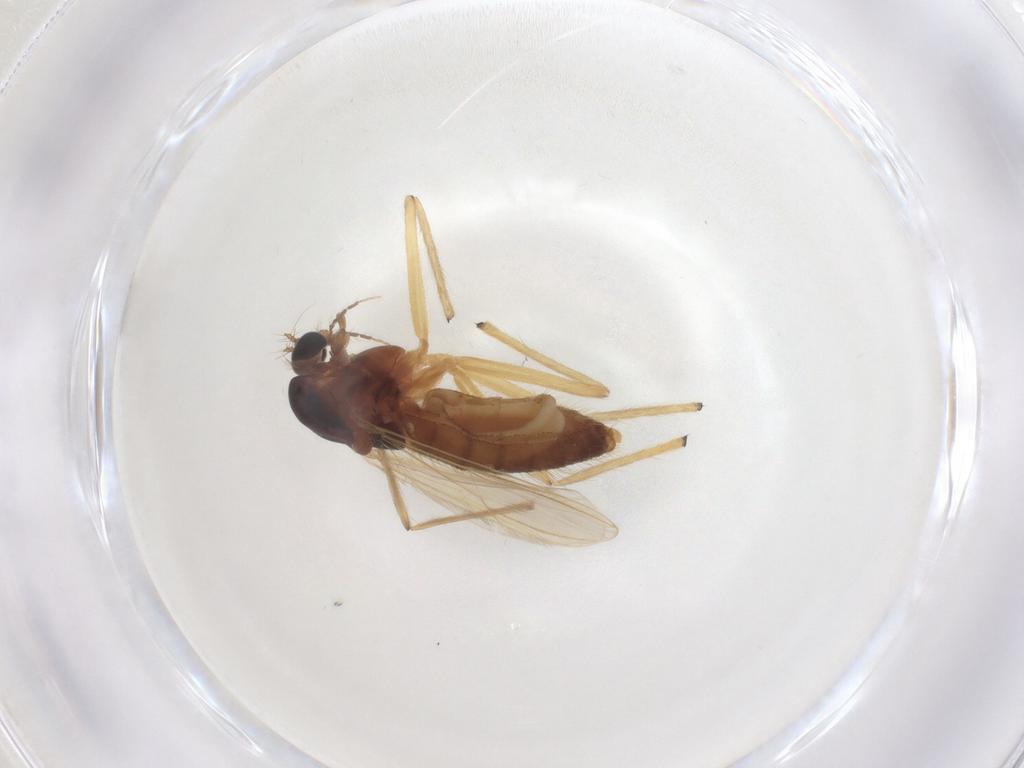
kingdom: Animalia
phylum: Arthropoda
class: Insecta
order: Diptera
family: Chironomidae
